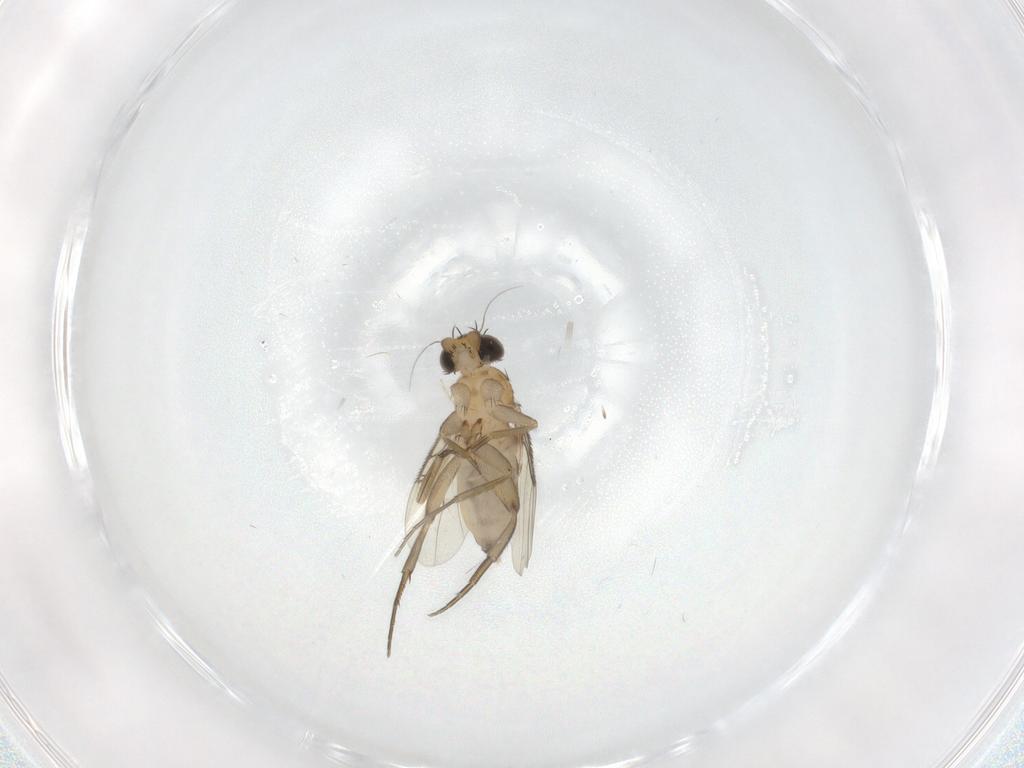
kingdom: Animalia
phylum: Arthropoda
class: Insecta
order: Diptera
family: Phoridae
